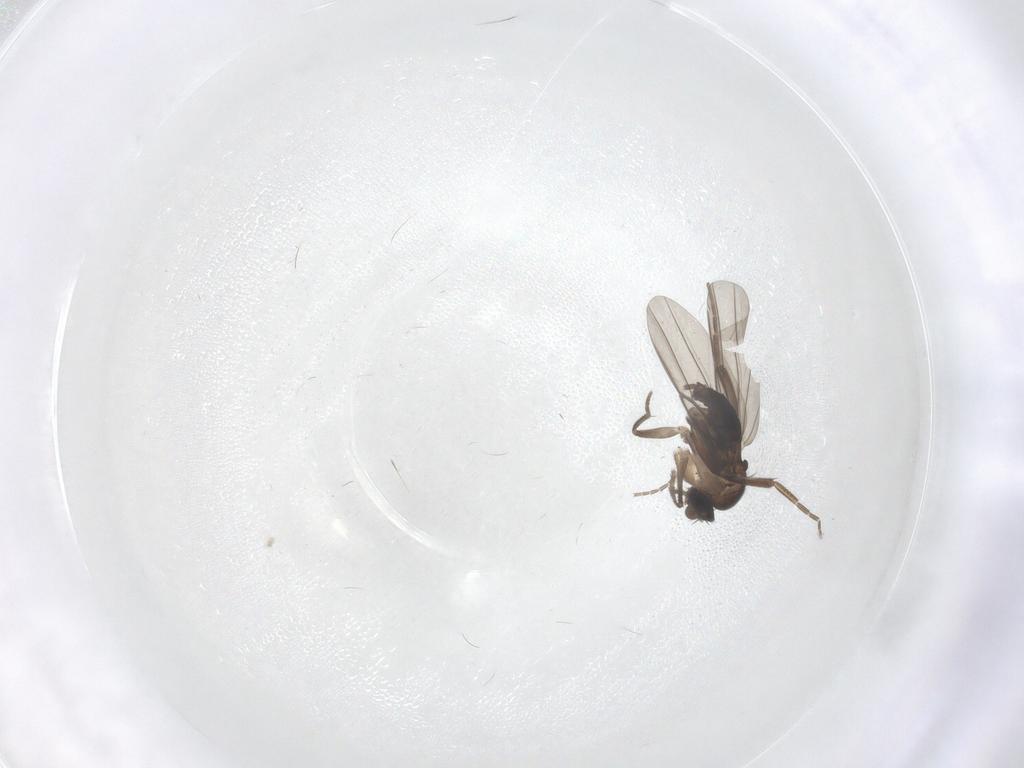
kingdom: Animalia
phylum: Arthropoda
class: Insecta
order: Diptera
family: Phoridae
